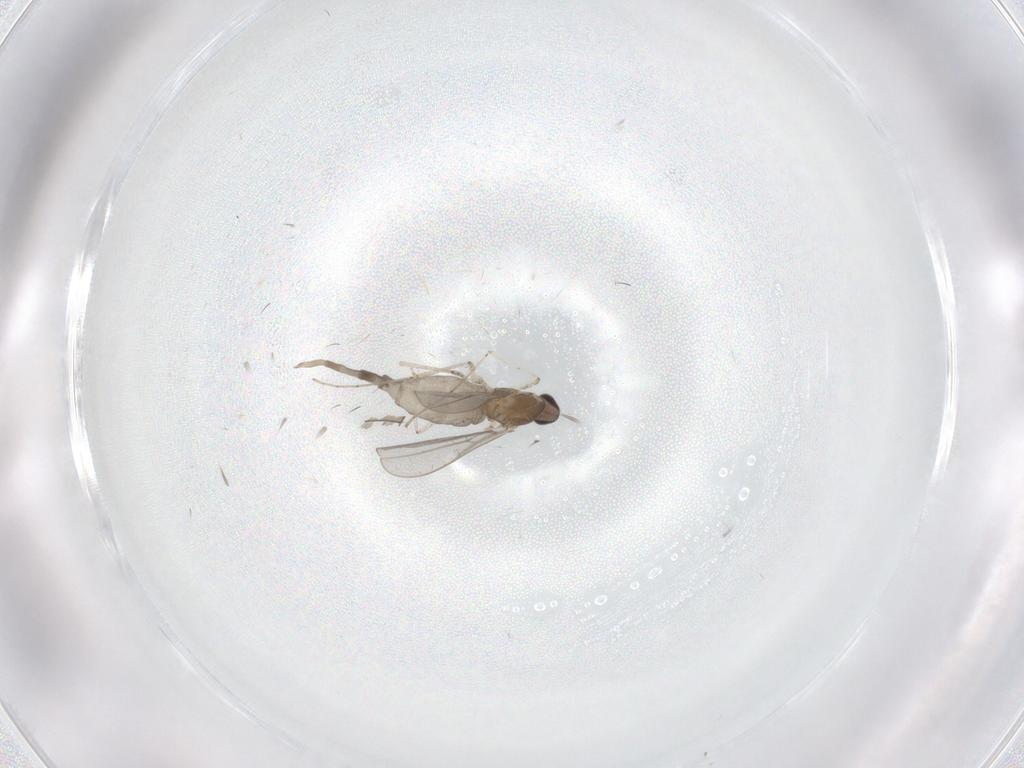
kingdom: Animalia
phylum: Arthropoda
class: Insecta
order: Diptera
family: Cecidomyiidae
